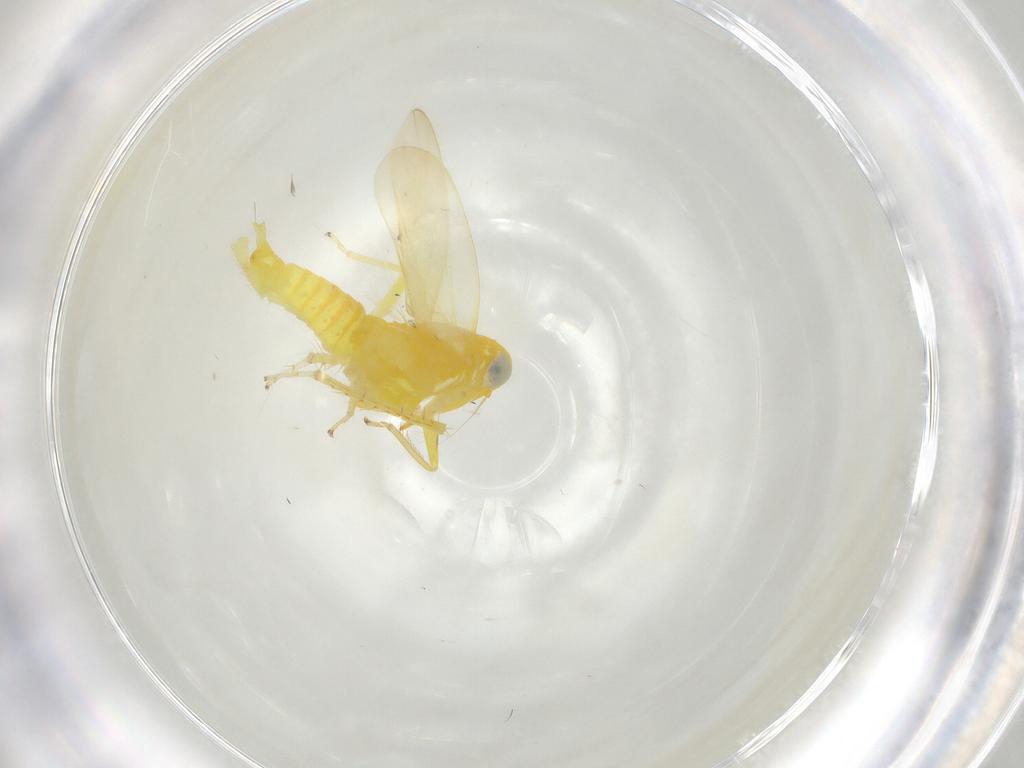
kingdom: Animalia
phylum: Arthropoda
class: Insecta
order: Hemiptera
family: Cicadellidae
